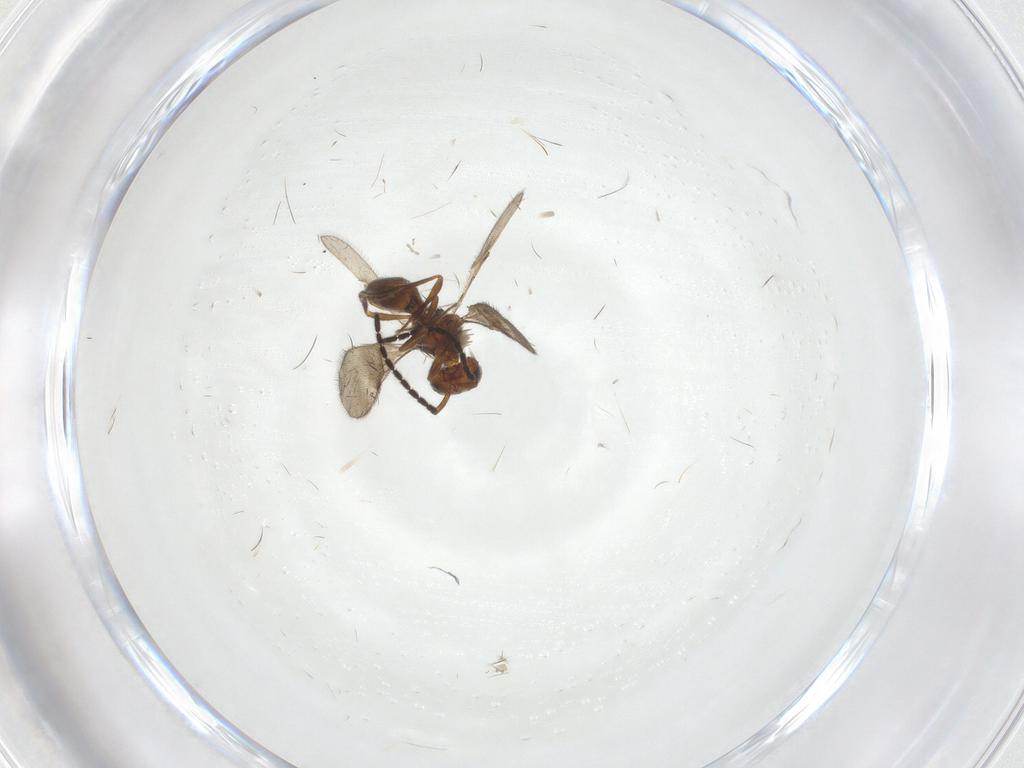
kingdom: Animalia
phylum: Arthropoda
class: Insecta
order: Hymenoptera
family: Scelionidae
